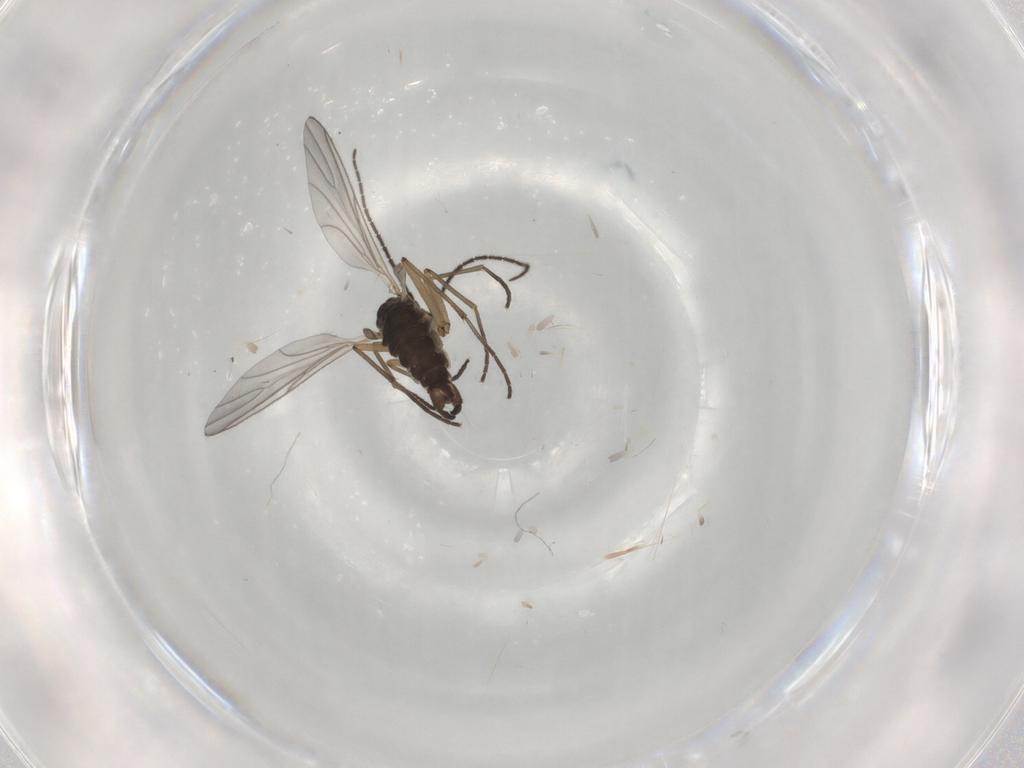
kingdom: Animalia
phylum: Arthropoda
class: Insecta
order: Diptera
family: Sciaridae
